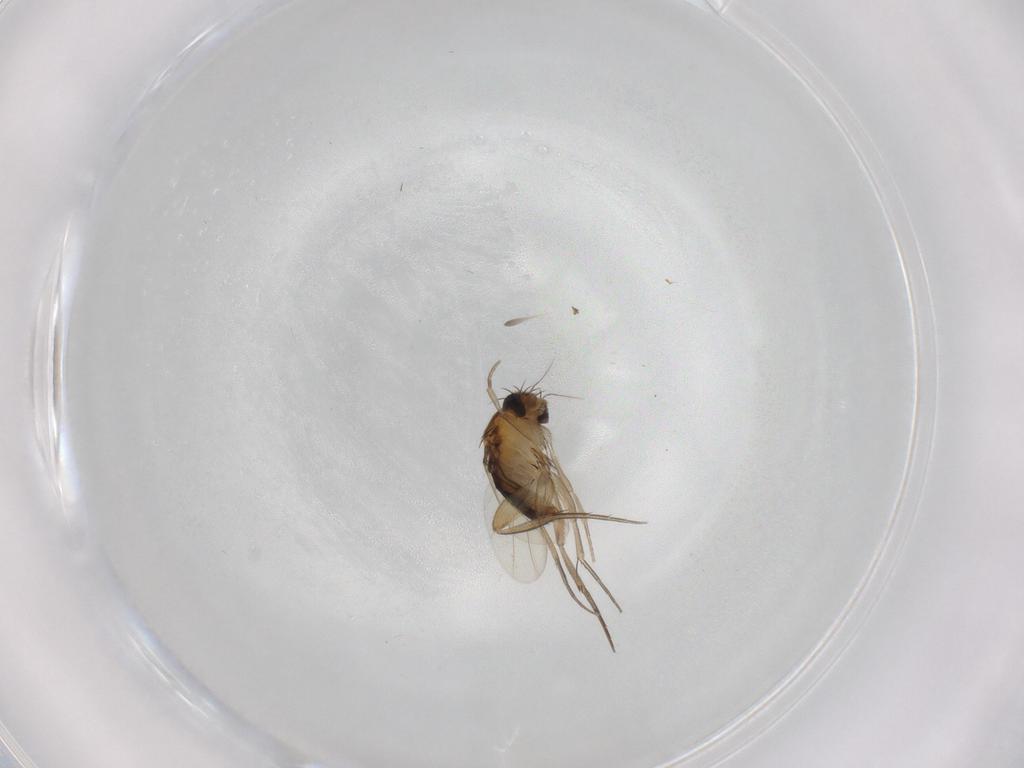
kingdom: Animalia
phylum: Arthropoda
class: Insecta
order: Diptera
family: Phoridae
